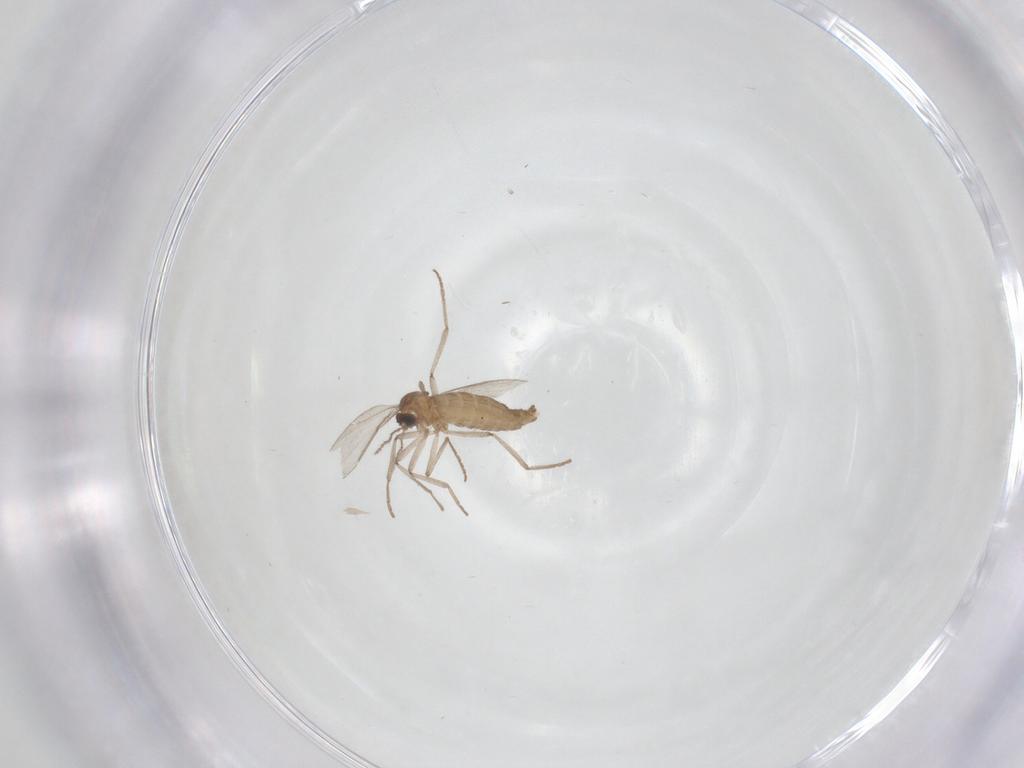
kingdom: Animalia
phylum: Arthropoda
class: Insecta
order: Diptera
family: Cecidomyiidae
